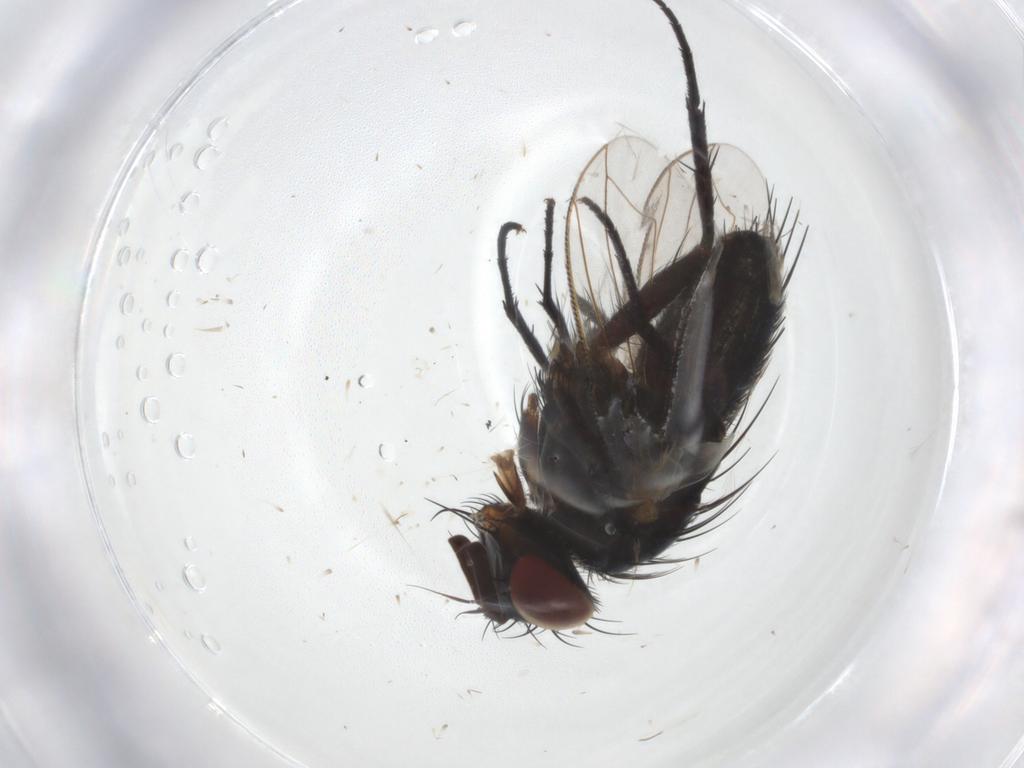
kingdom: Animalia
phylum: Arthropoda
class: Insecta
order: Diptera
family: Tachinidae
